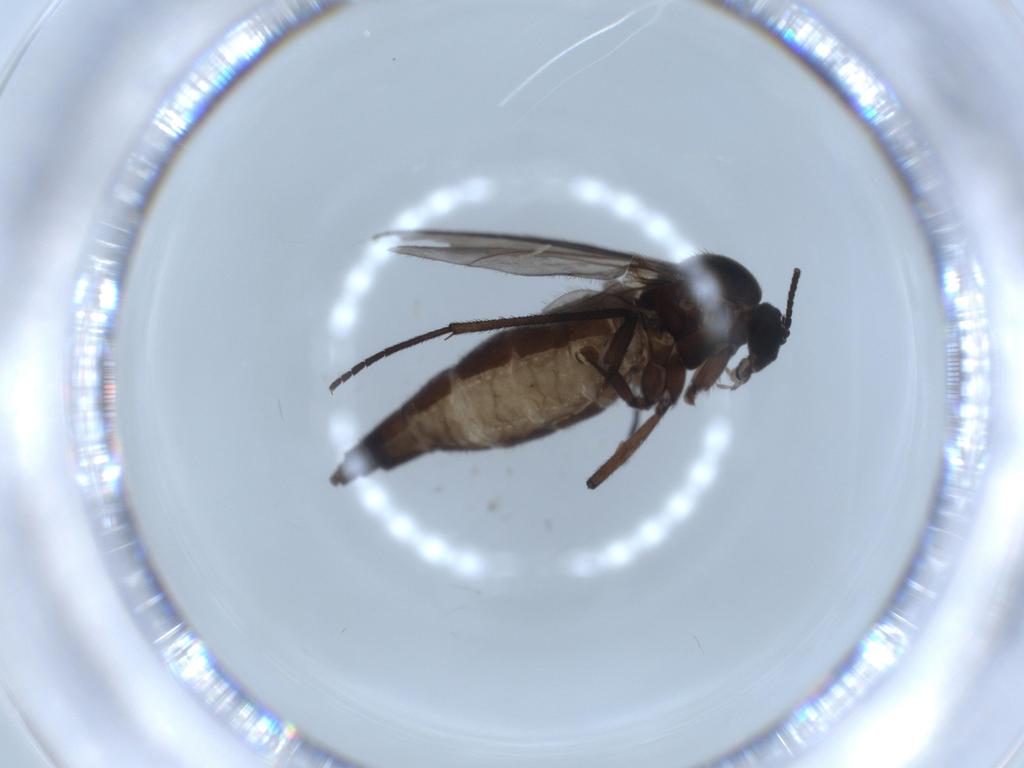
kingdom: Animalia
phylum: Arthropoda
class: Insecta
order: Diptera
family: Sciaridae
